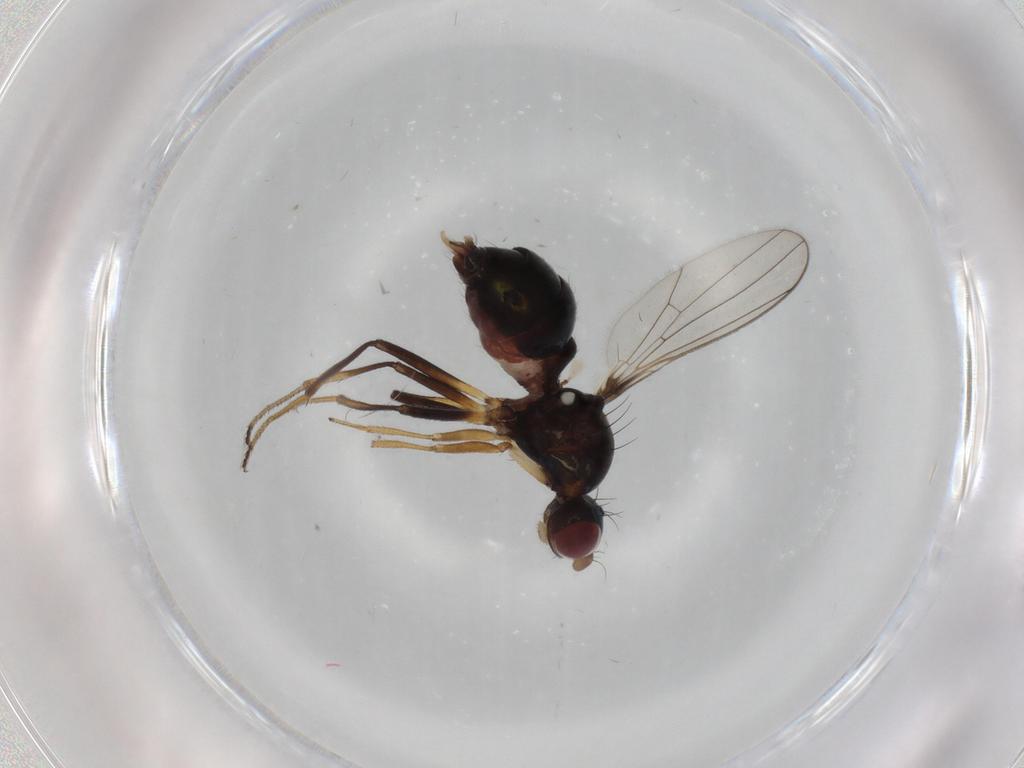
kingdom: Animalia
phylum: Arthropoda
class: Insecta
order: Diptera
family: Sepsidae
